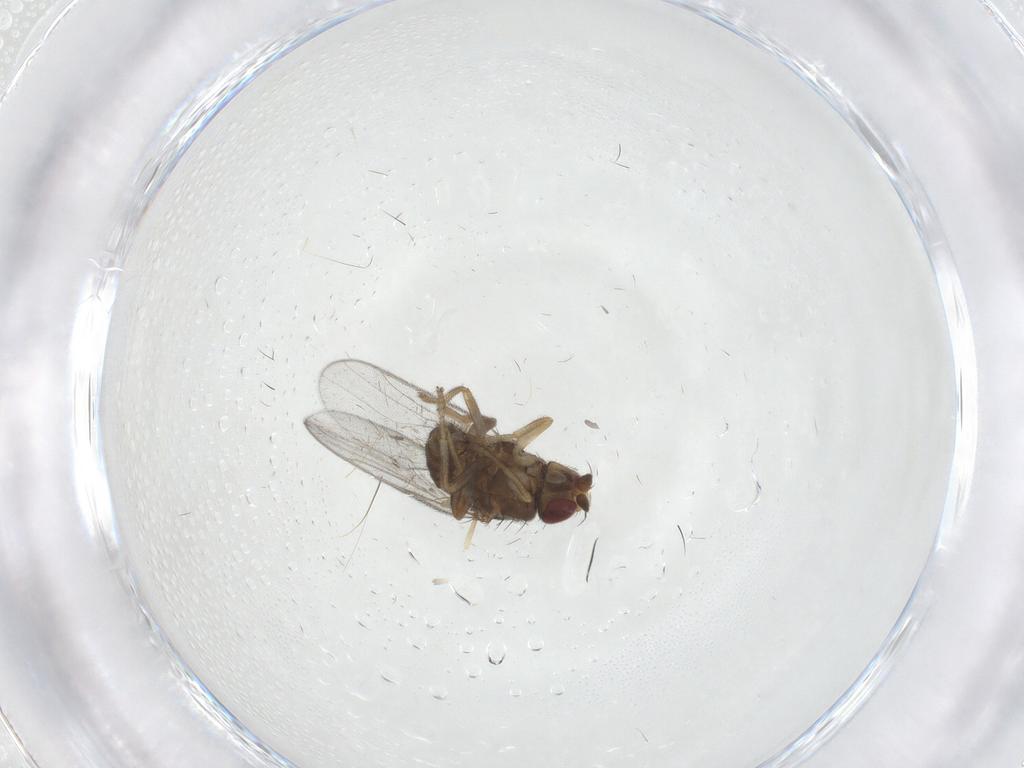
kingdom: Animalia
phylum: Arthropoda
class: Insecta
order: Diptera
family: Chloropidae
